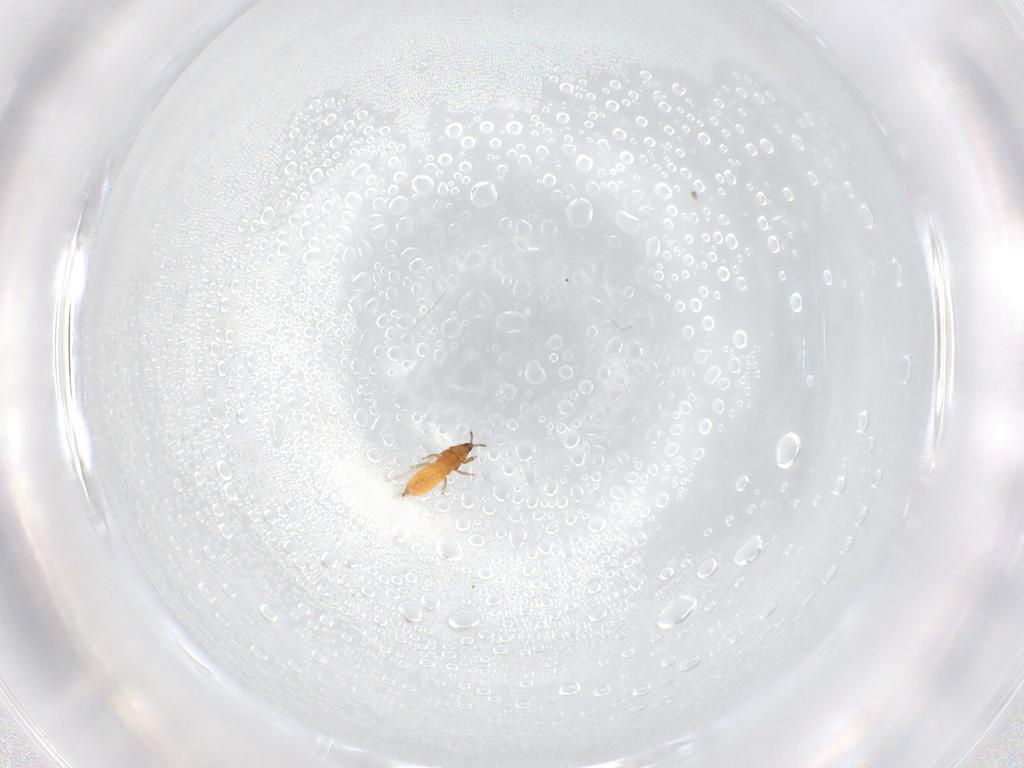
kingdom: Animalia
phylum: Arthropoda
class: Insecta
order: Thysanoptera
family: Thripidae
